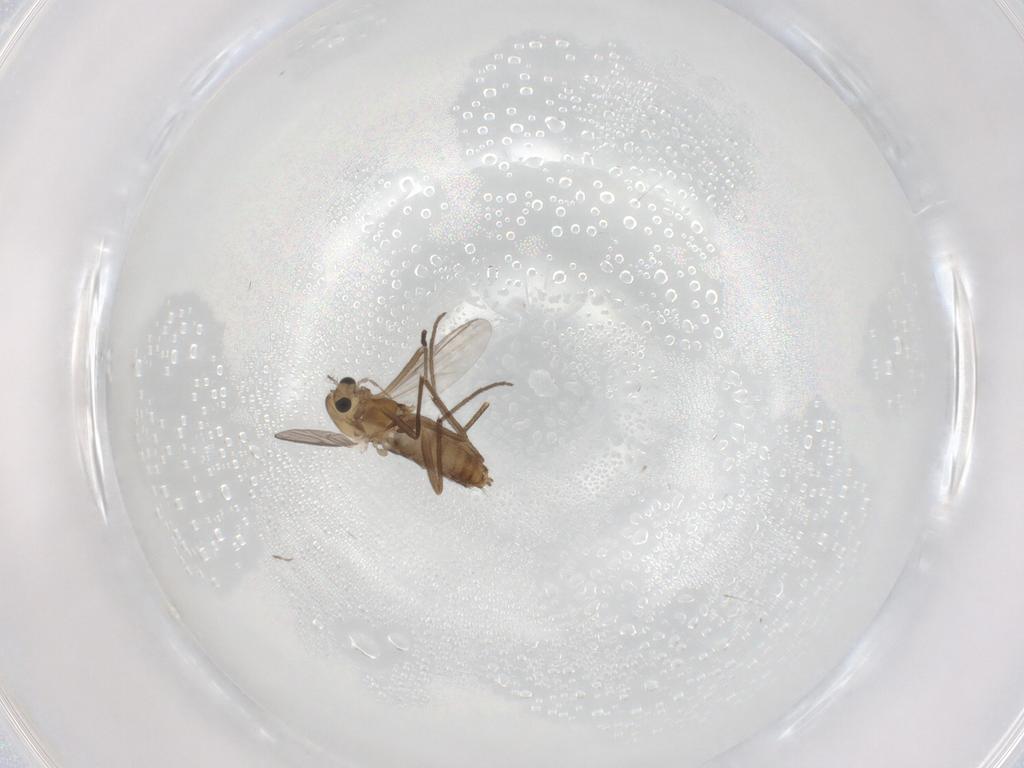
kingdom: Animalia
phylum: Arthropoda
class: Insecta
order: Diptera
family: Chironomidae
